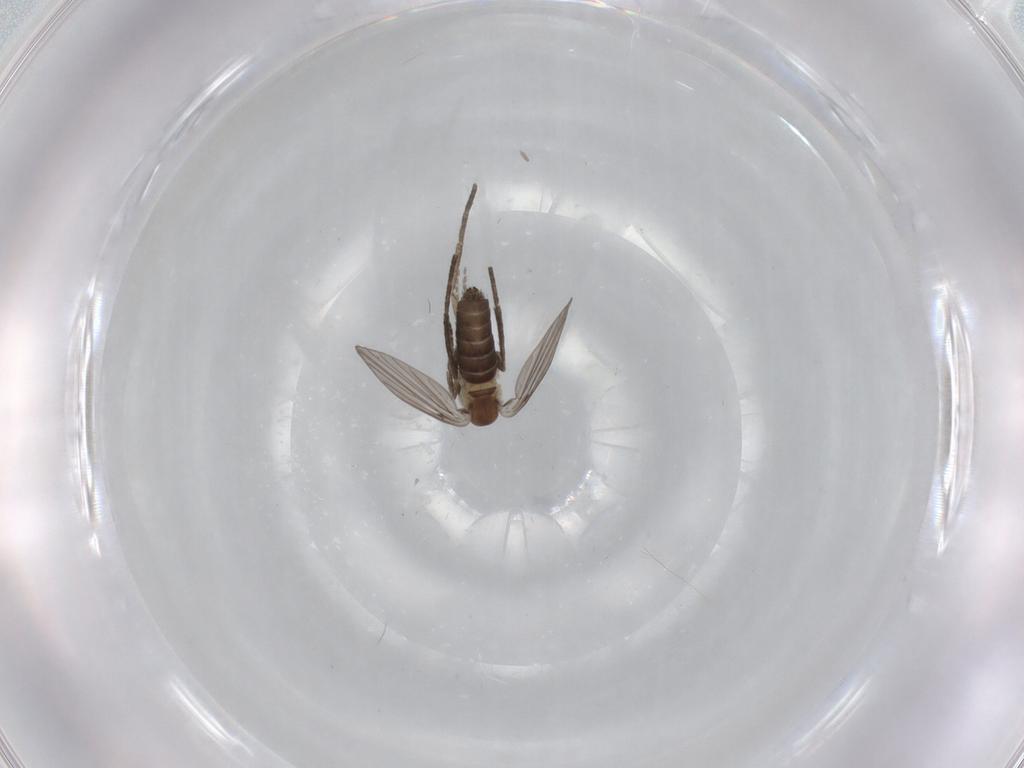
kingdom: Animalia
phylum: Arthropoda
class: Insecta
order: Diptera
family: Psychodidae
